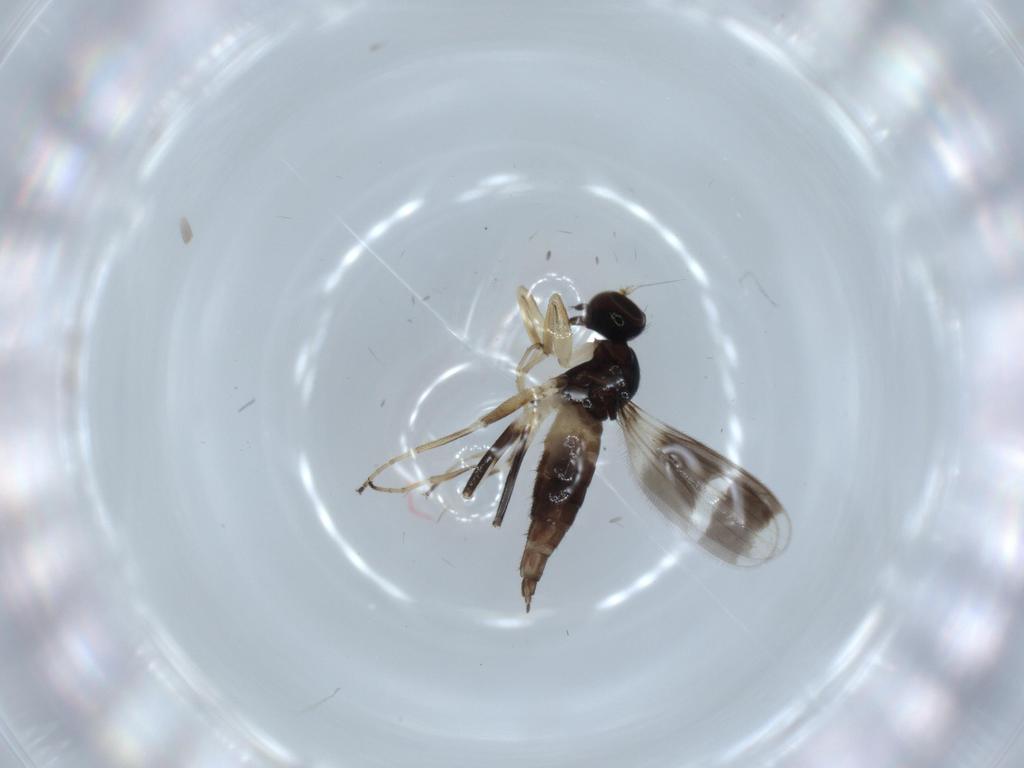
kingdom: Animalia
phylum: Arthropoda
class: Insecta
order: Diptera
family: Hybotidae
